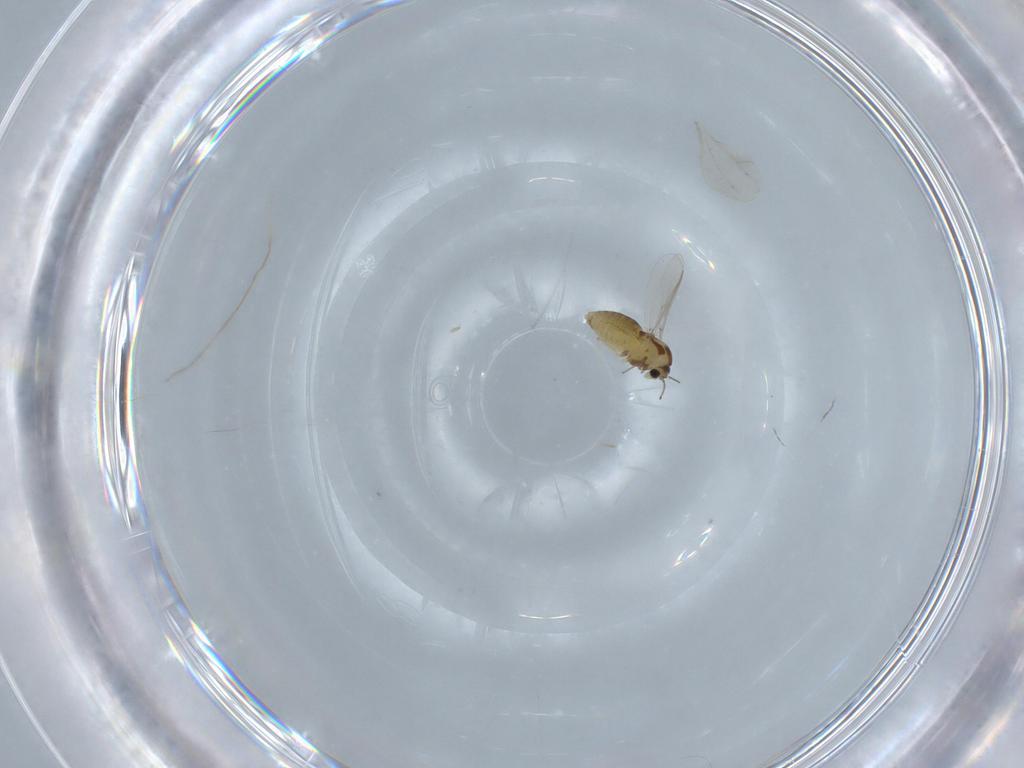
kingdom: Animalia
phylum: Arthropoda
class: Insecta
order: Diptera
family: Chironomidae
